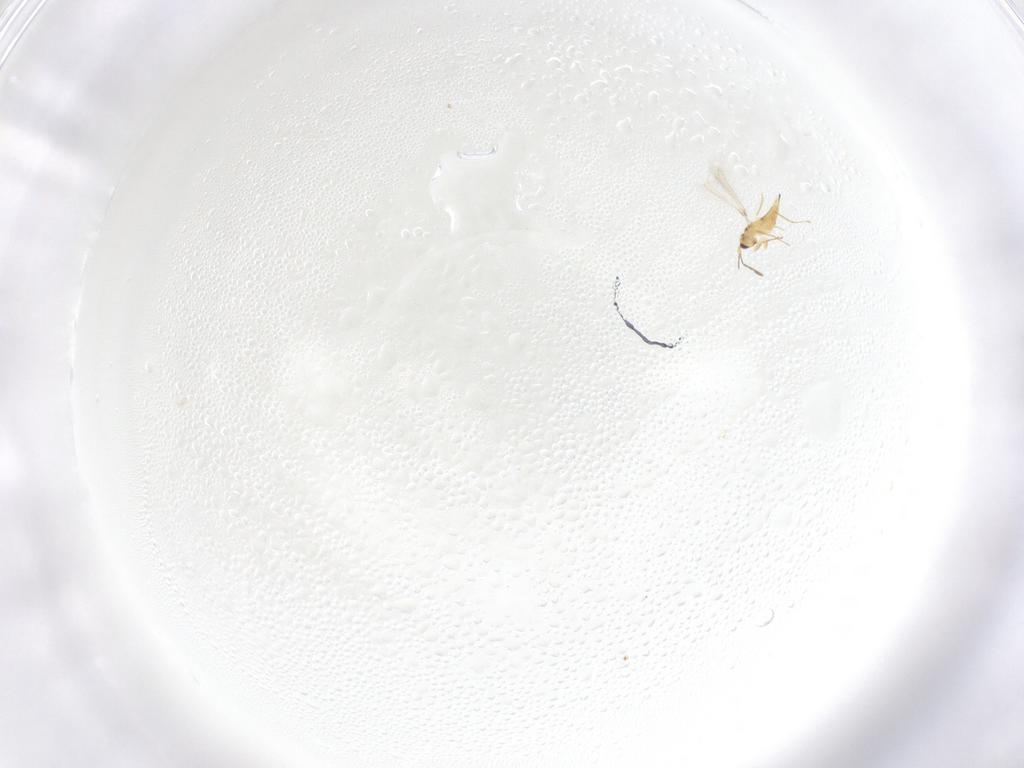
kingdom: Animalia
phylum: Arthropoda
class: Insecta
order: Hymenoptera
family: Mymaridae
